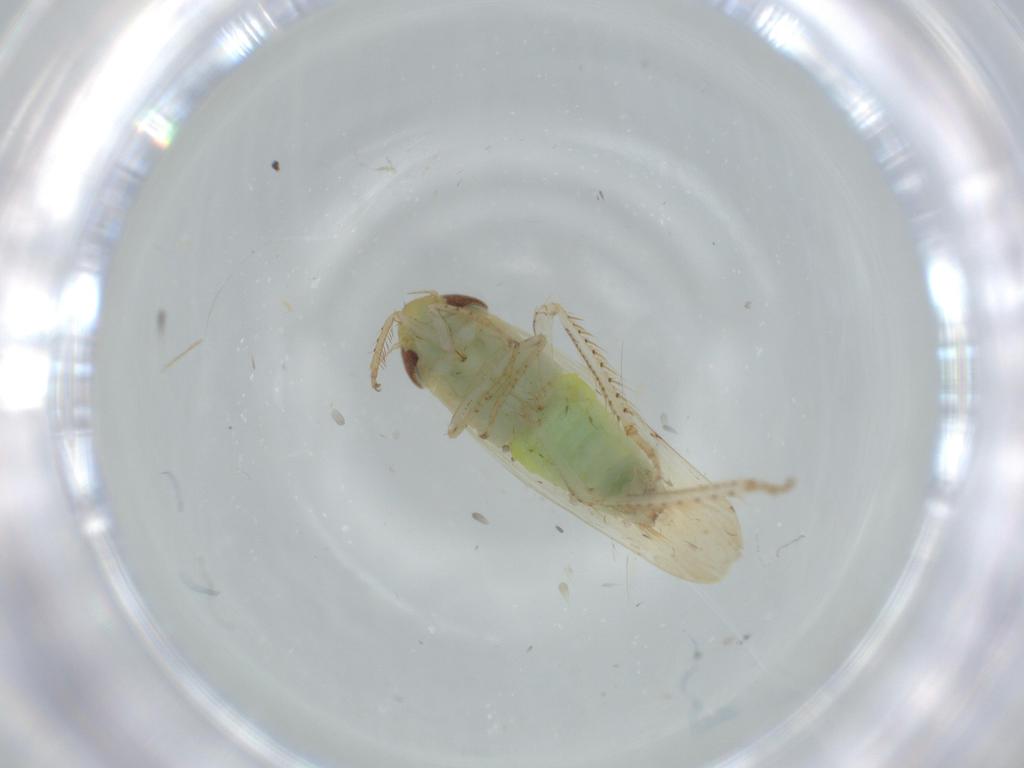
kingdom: Animalia
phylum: Arthropoda
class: Insecta
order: Hemiptera
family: Cicadellidae
